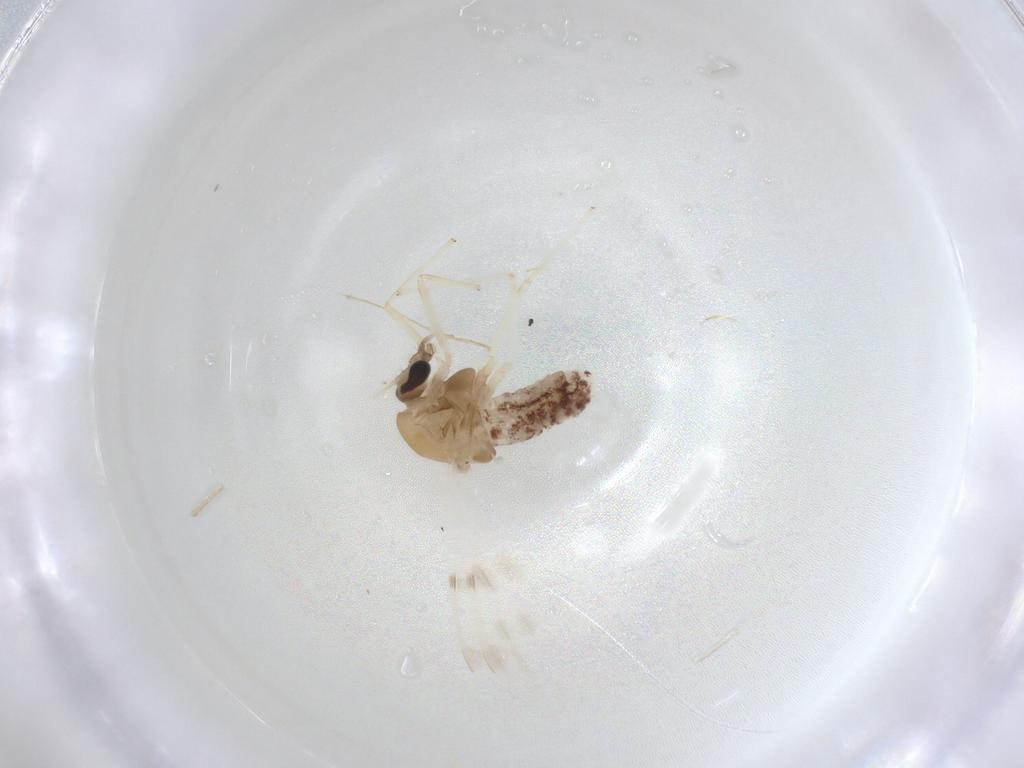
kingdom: Animalia
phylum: Arthropoda
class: Insecta
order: Diptera
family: Chironomidae
